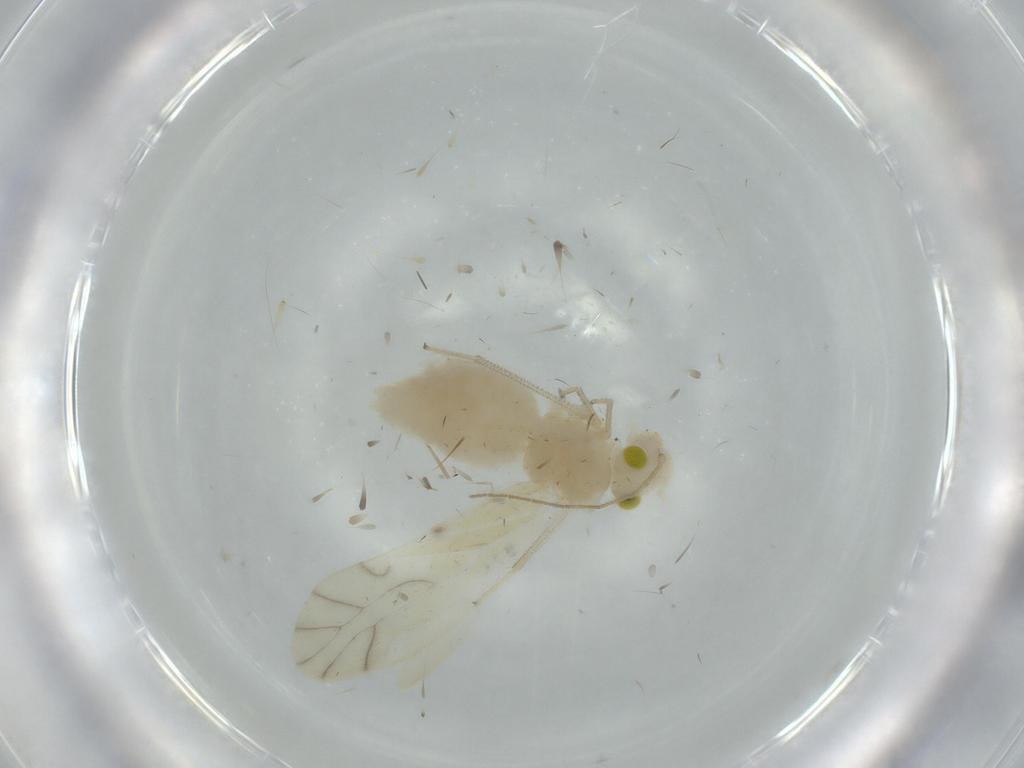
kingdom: Animalia
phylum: Arthropoda
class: Insecta
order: Psocodea
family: Caeciliusidae
